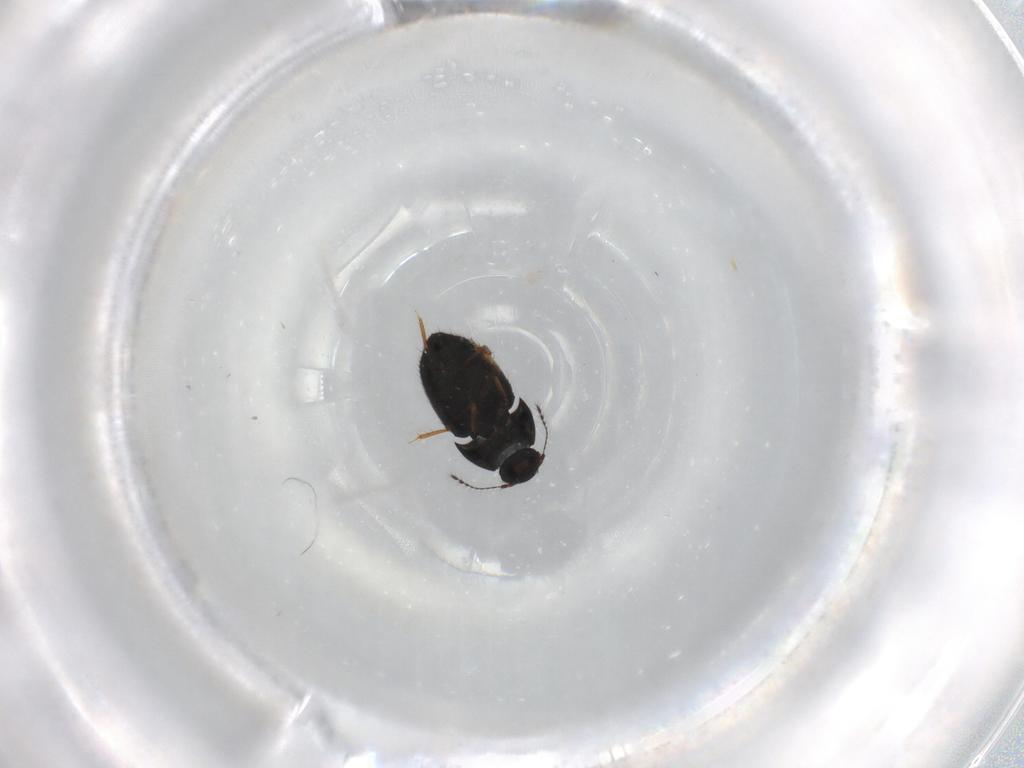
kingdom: Animalia
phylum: Arthropoda
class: Insecta
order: Coleoptera
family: Ptiliidae
